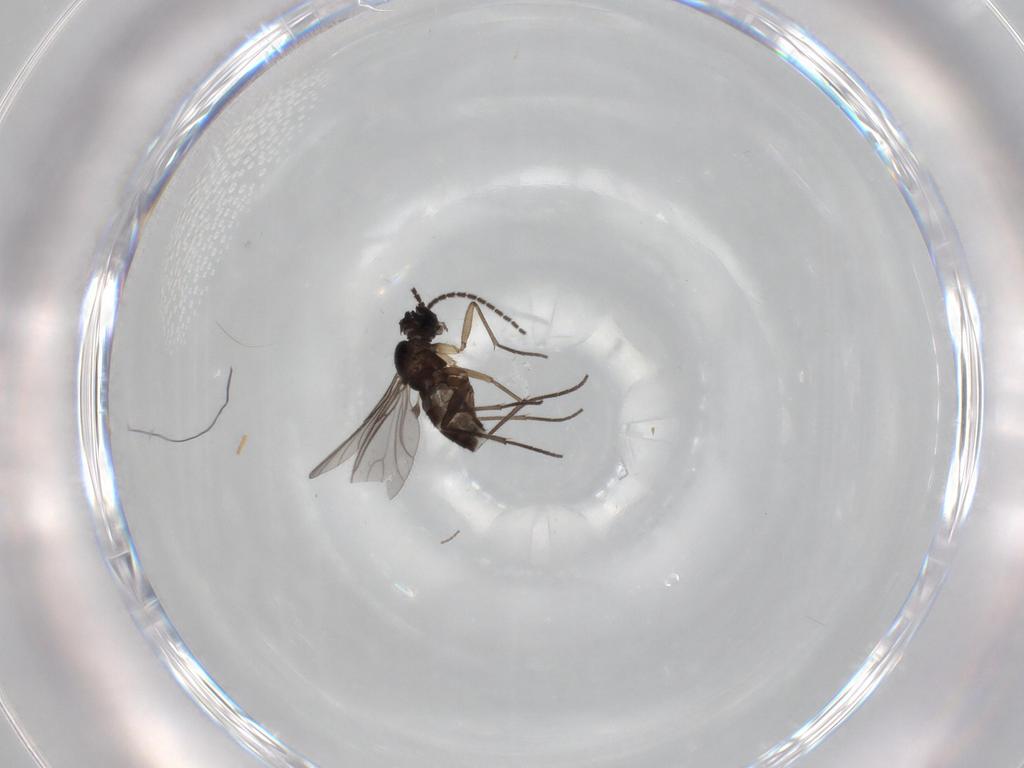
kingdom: Animalia
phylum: Arthropoda
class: Insecta
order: Diptera
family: Sciaridae
